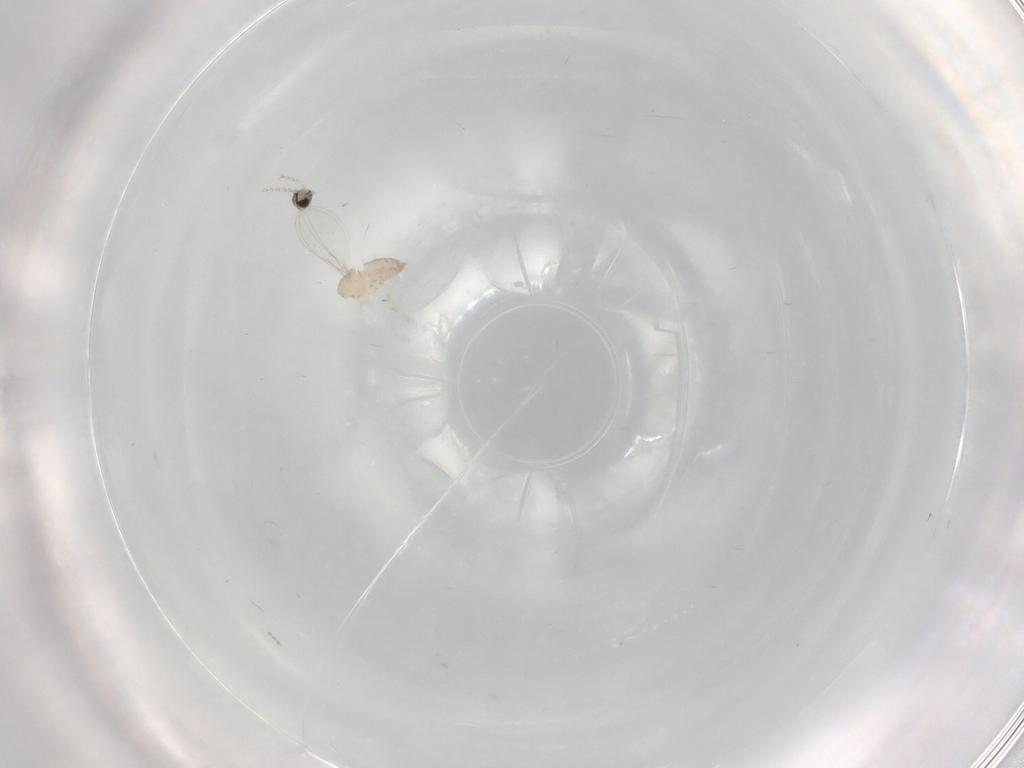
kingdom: Animalia
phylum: Arthropoda
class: Insecta
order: Diptera
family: Cecidomyiidae
